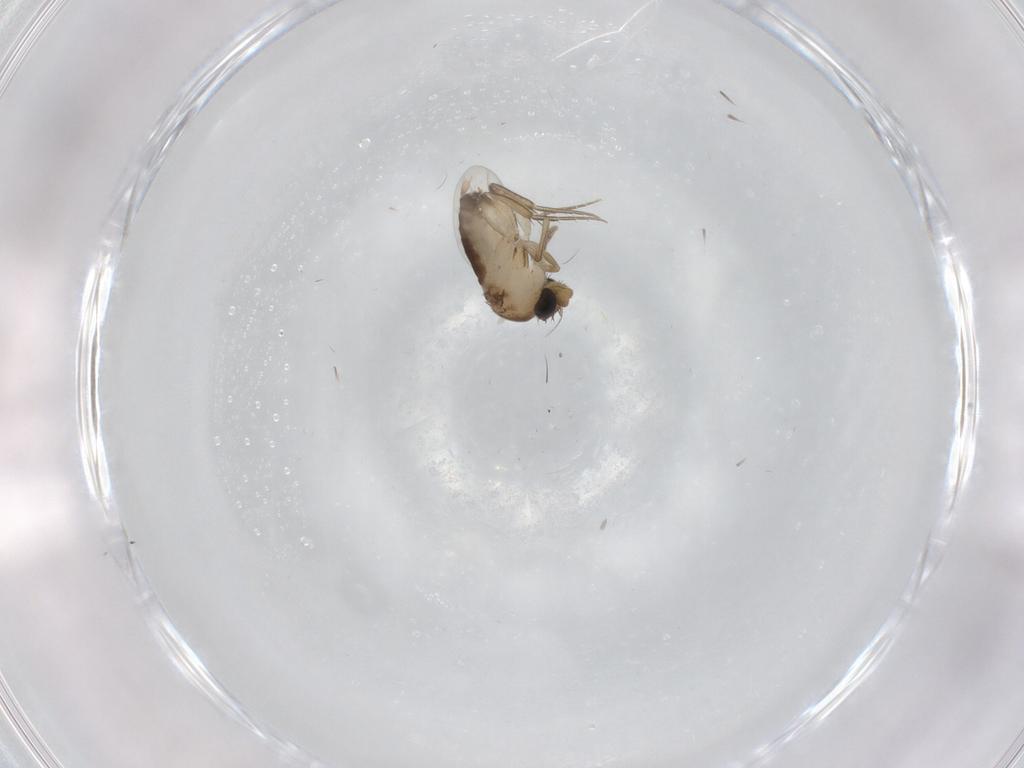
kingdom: Animalia
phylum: Arthropoda
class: Insecta
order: Diptera
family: Phoridae
